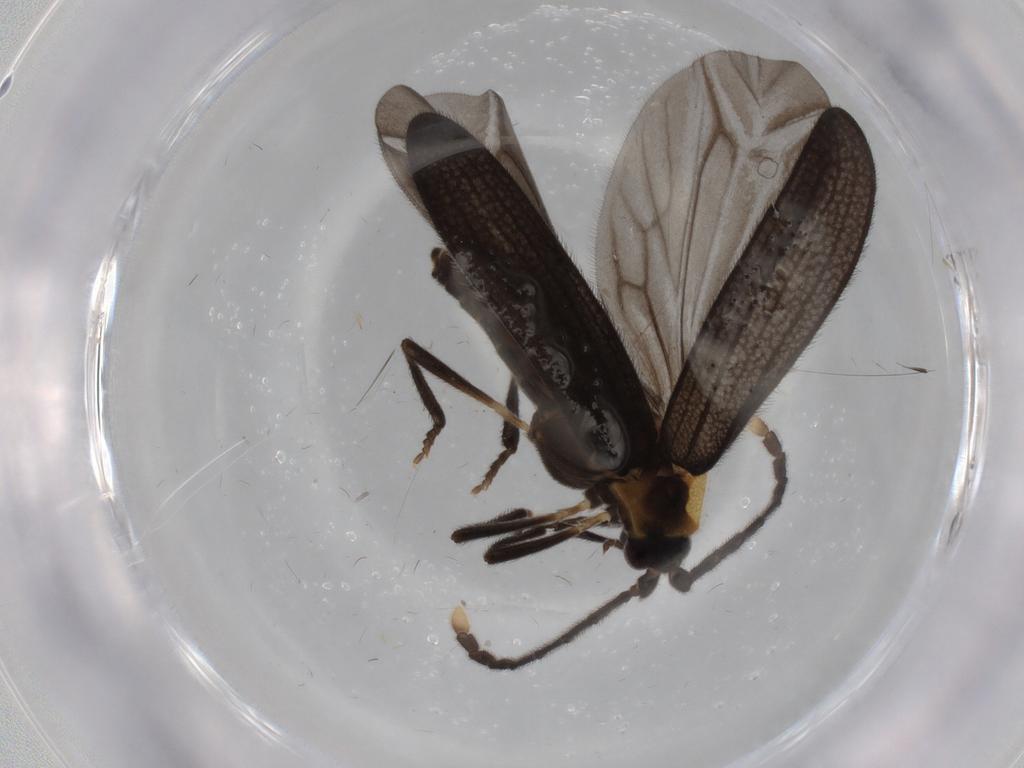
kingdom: Animalia
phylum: Arthropoda
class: Insecta
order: Coleoptera
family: Lycidae
